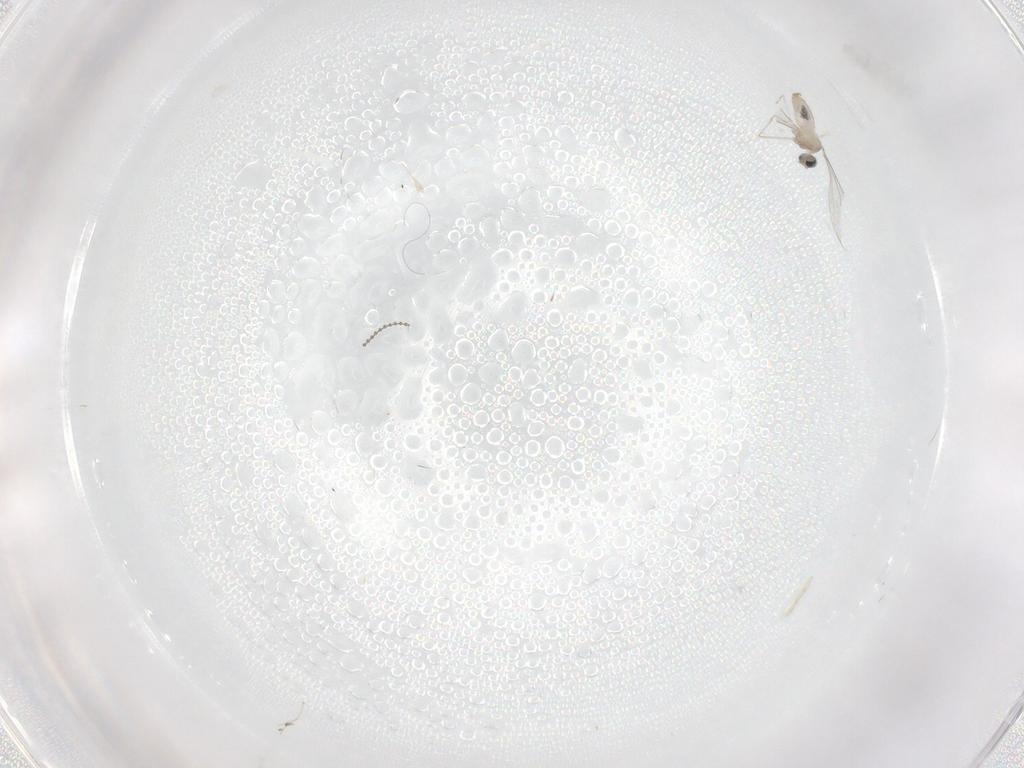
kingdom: Animalia
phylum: Arthropoda
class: Insecta
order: Diptera
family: Cecidomyiidae
